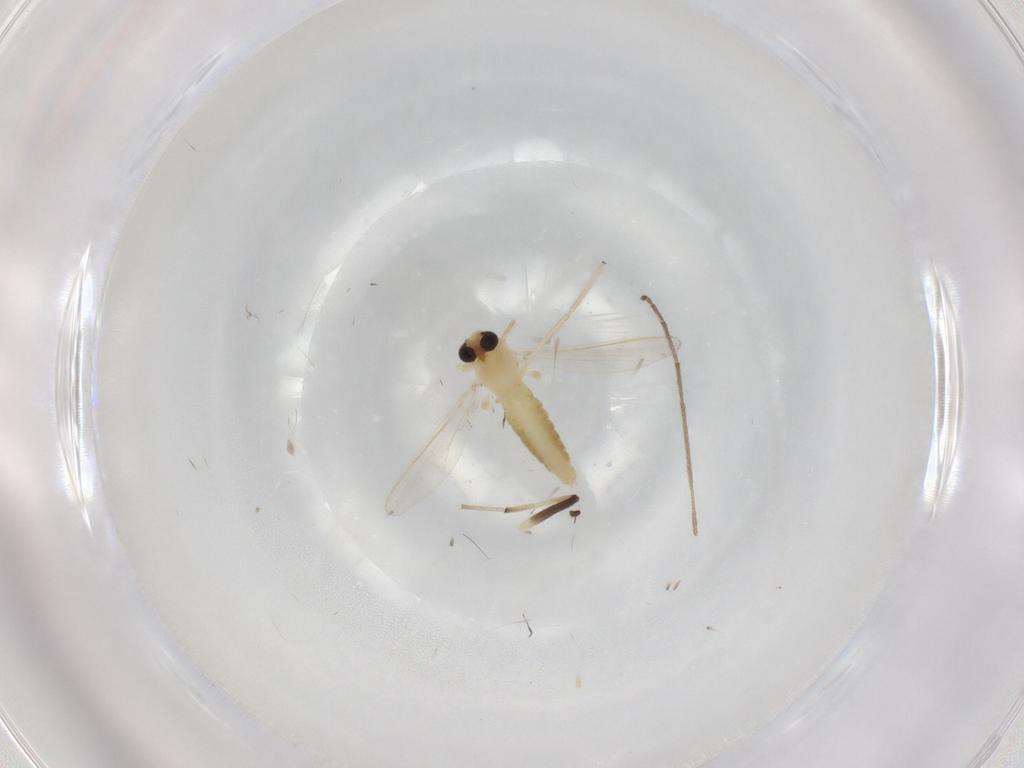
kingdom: Animalia
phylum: Arthropoda
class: Insecta
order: Diptera
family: Chironomidae
